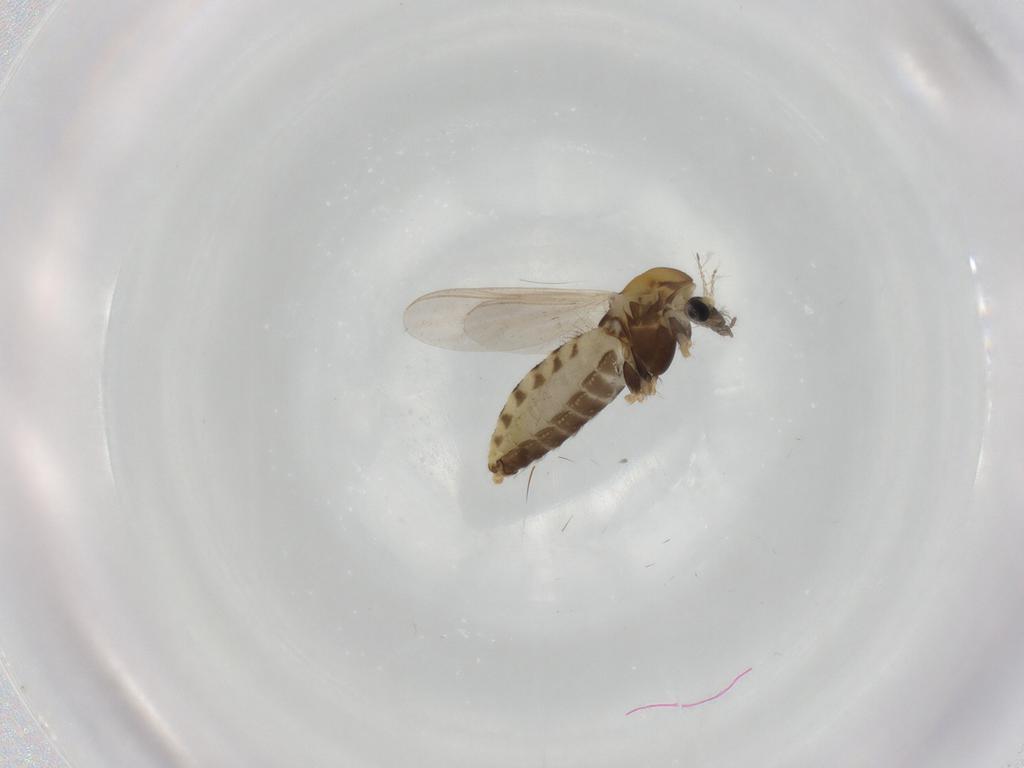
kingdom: Animalia
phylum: Arthropoda
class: Insecta
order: Diptera
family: Chironomidae
